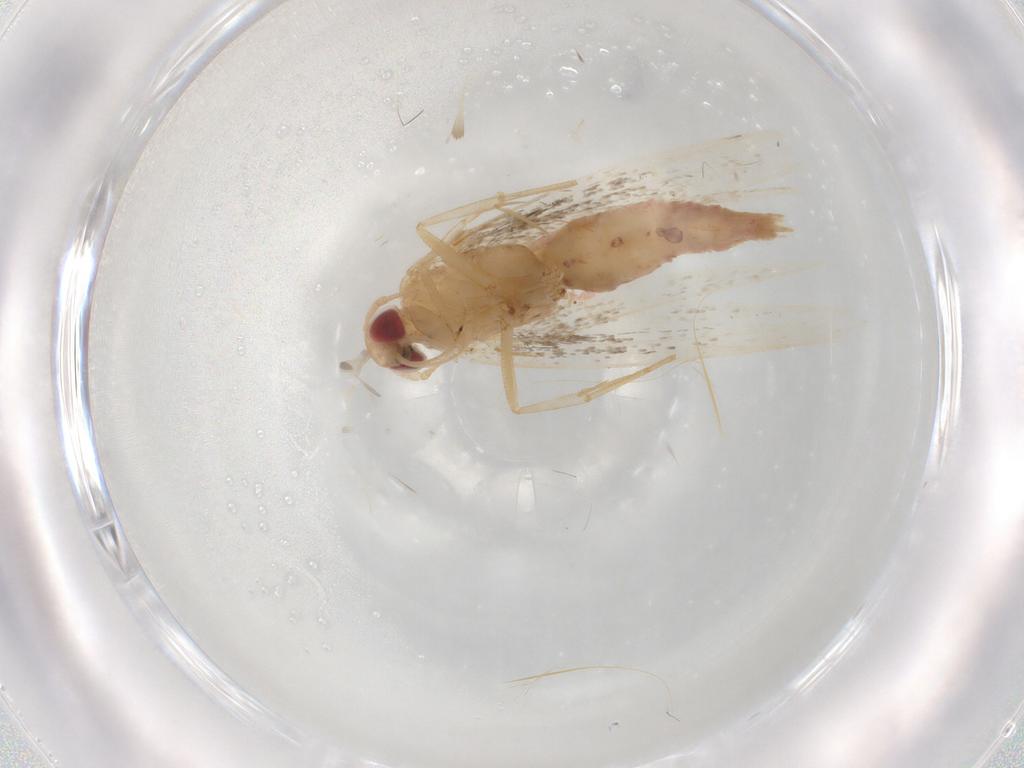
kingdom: Animalia
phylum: Arthropoda
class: Insecta
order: Lepidoptera
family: Cosmopterigidae
